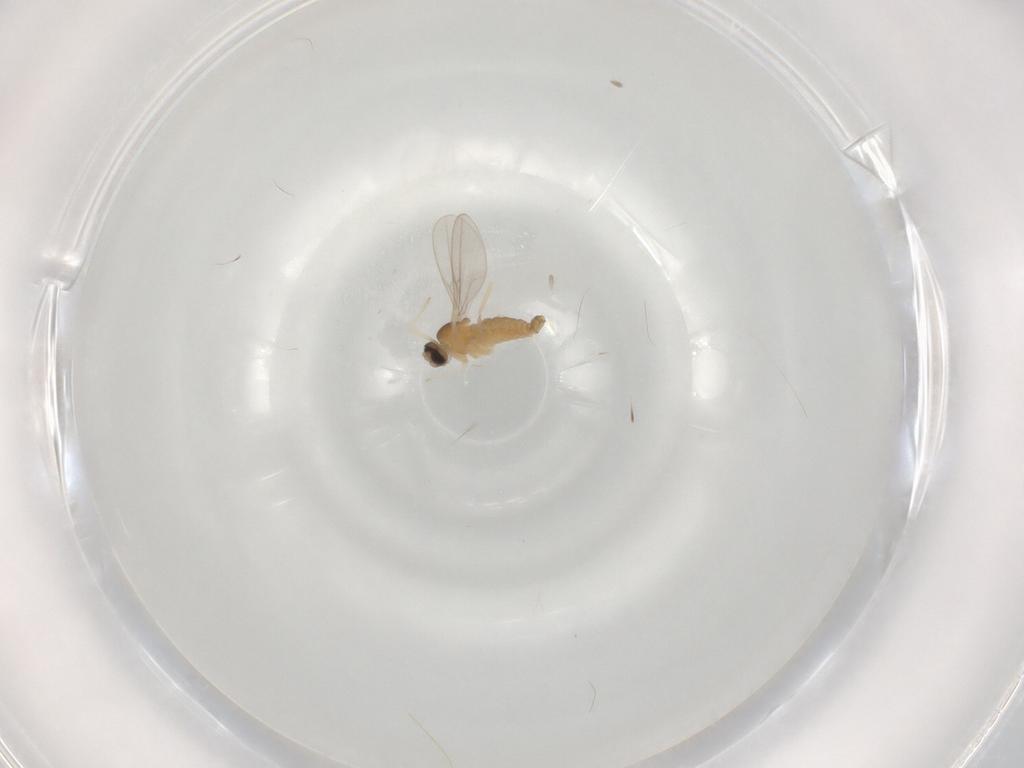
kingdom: Animalia
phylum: Arthropoda
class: Insecta
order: Diptera
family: Cecidomyiidae
